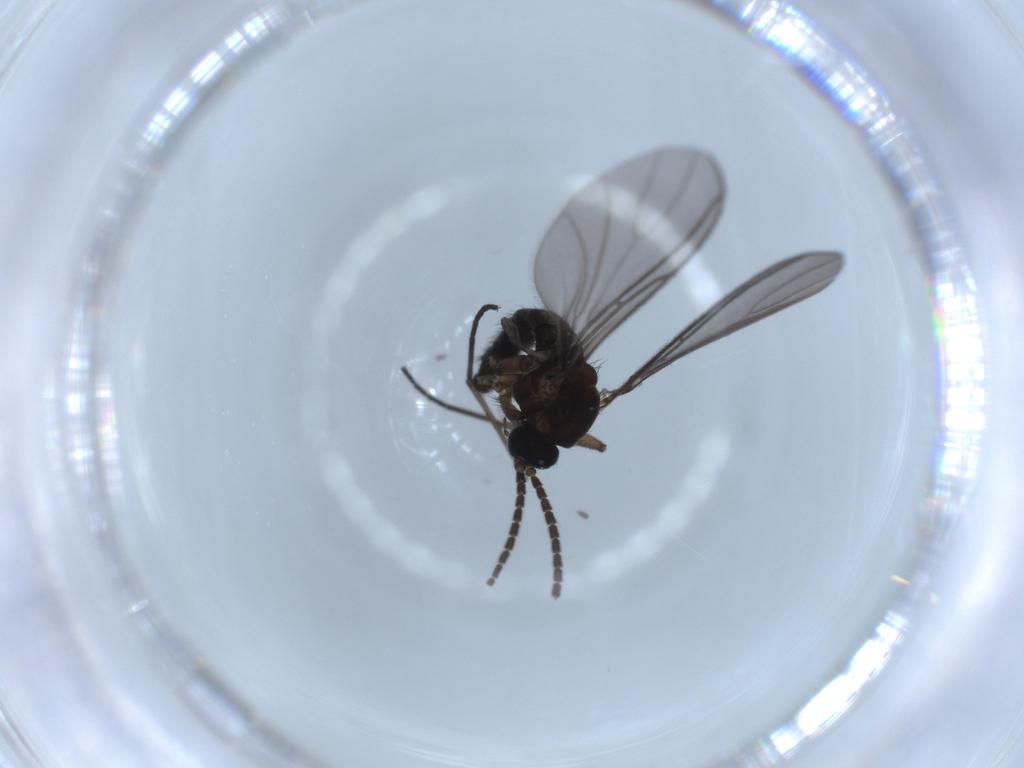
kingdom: Animalia
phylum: Arthropoda
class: Insecta
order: Diptera
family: Sciaridae
